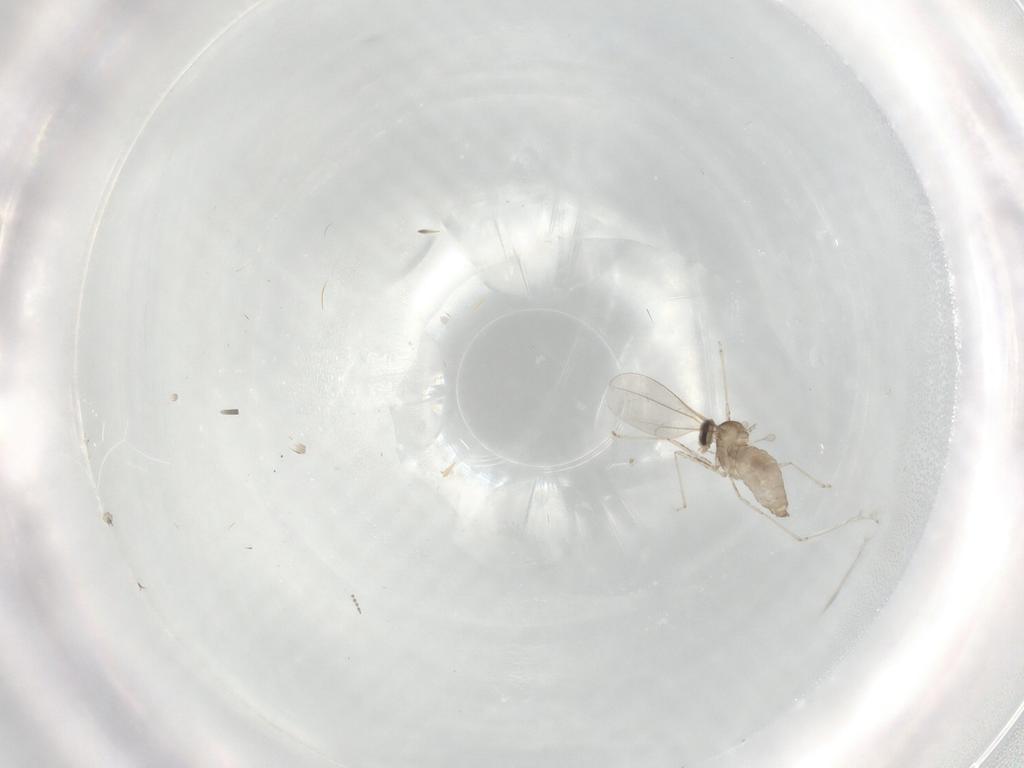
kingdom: Animalia
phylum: Arthropoda
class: Insecta
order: Diptera
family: Cecidomyiidae
